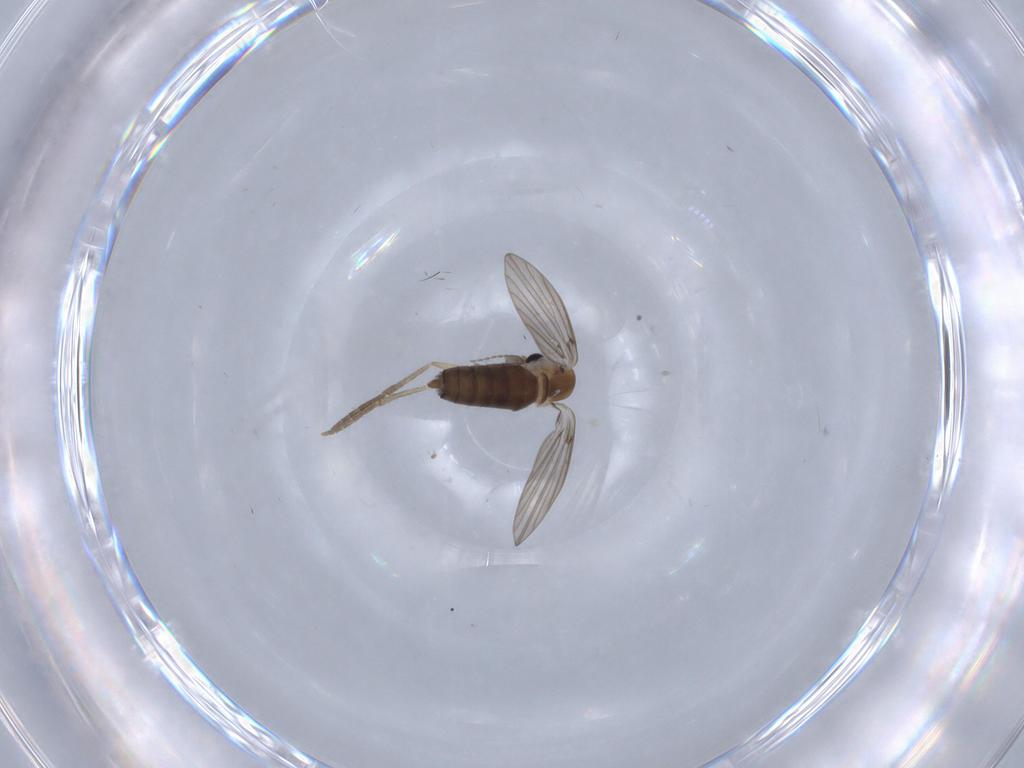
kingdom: Animalia
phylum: Arthropoda
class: Insecta
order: Diptera
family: Psychodidae
